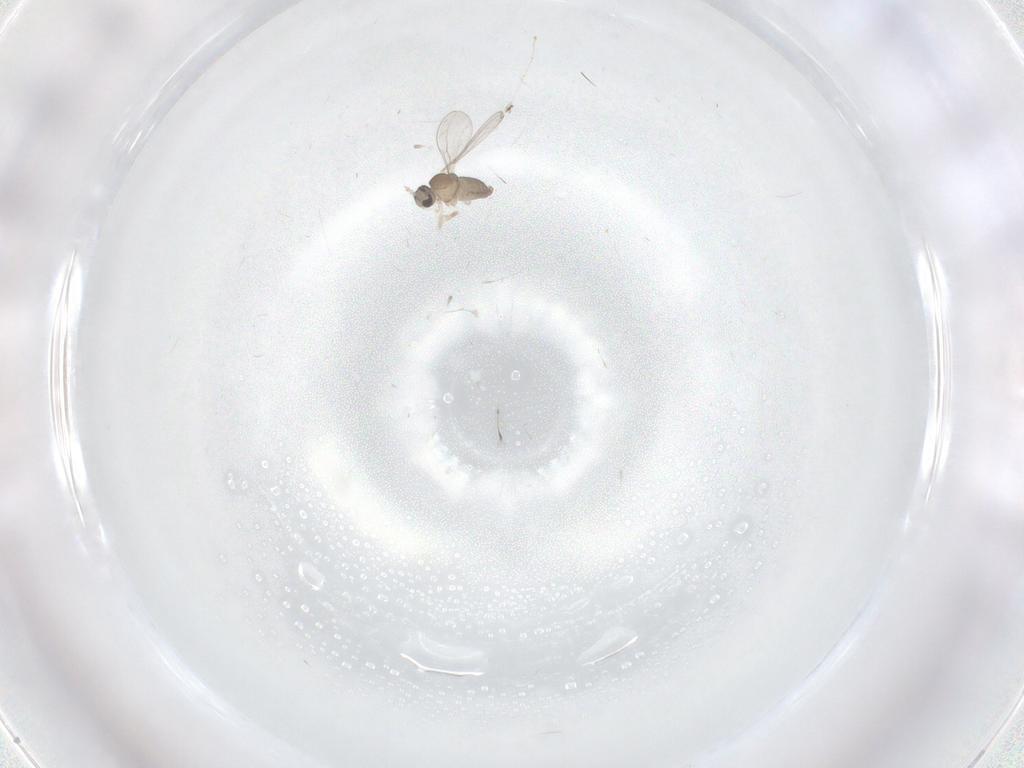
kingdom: Animalia
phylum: Arthropoda
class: Insecta
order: Diptera
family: Cecidomyiidae
